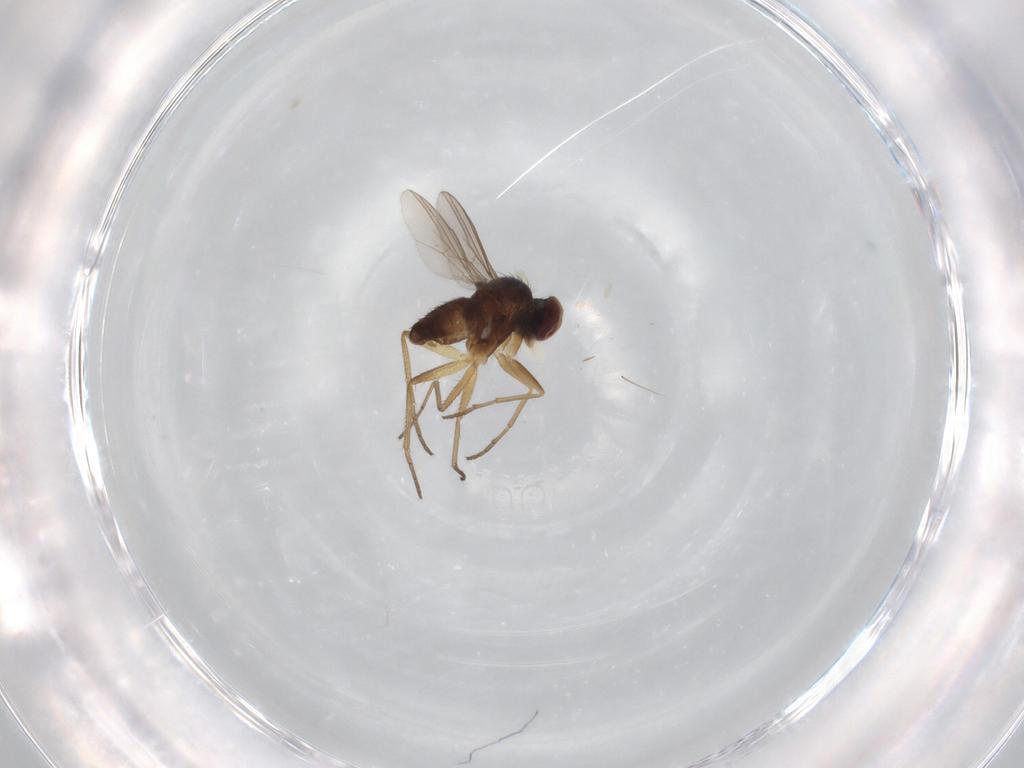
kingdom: Animalia
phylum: Arthropoda
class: Insecta
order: Diptera
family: Dolichopodidae
